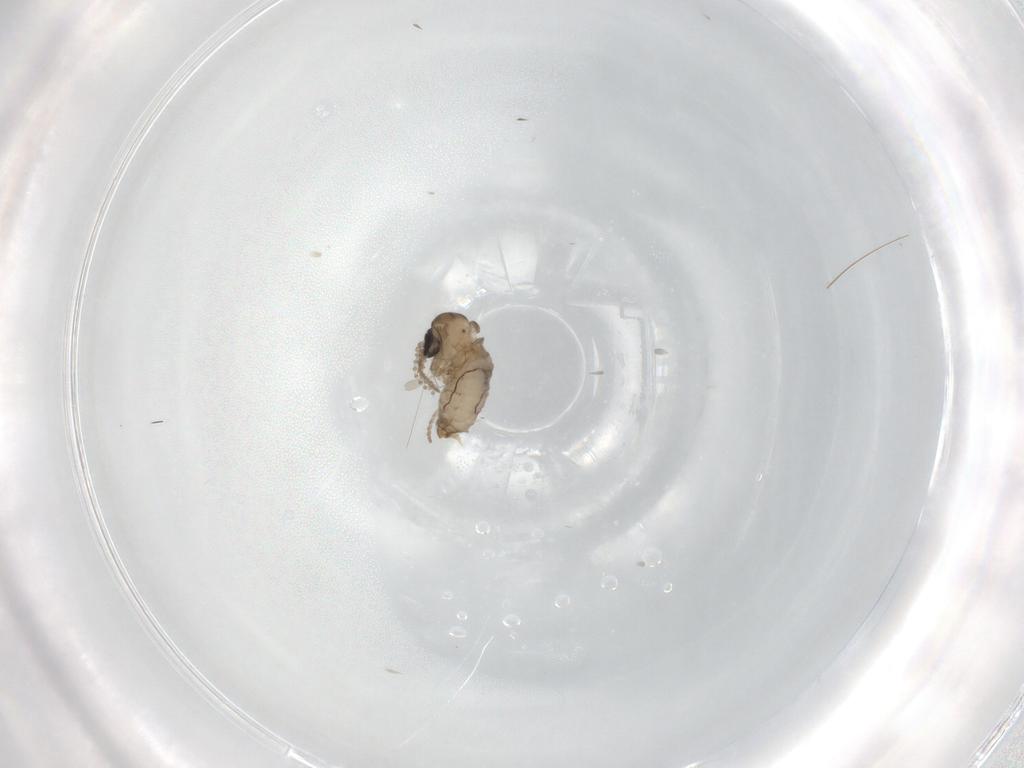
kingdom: Animalia
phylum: Arthropoda
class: Insecta
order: Diptera
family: Psychodidae
